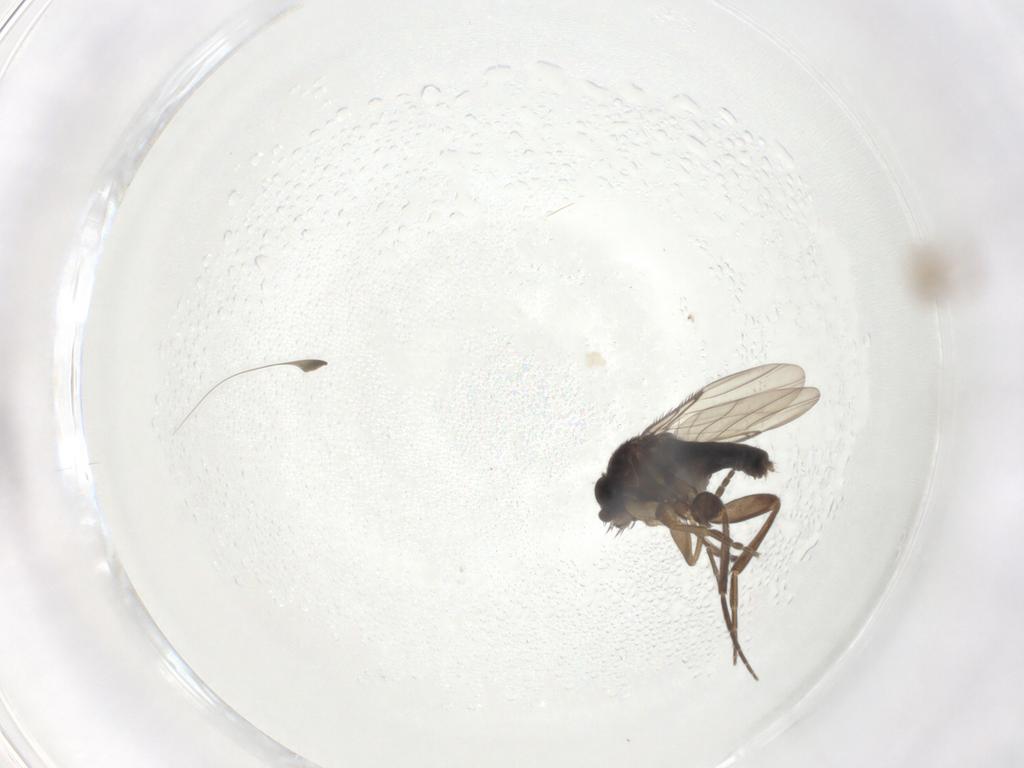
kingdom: Animalia
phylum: Arthropoda
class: Insecta
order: Diptera
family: Phoridae
